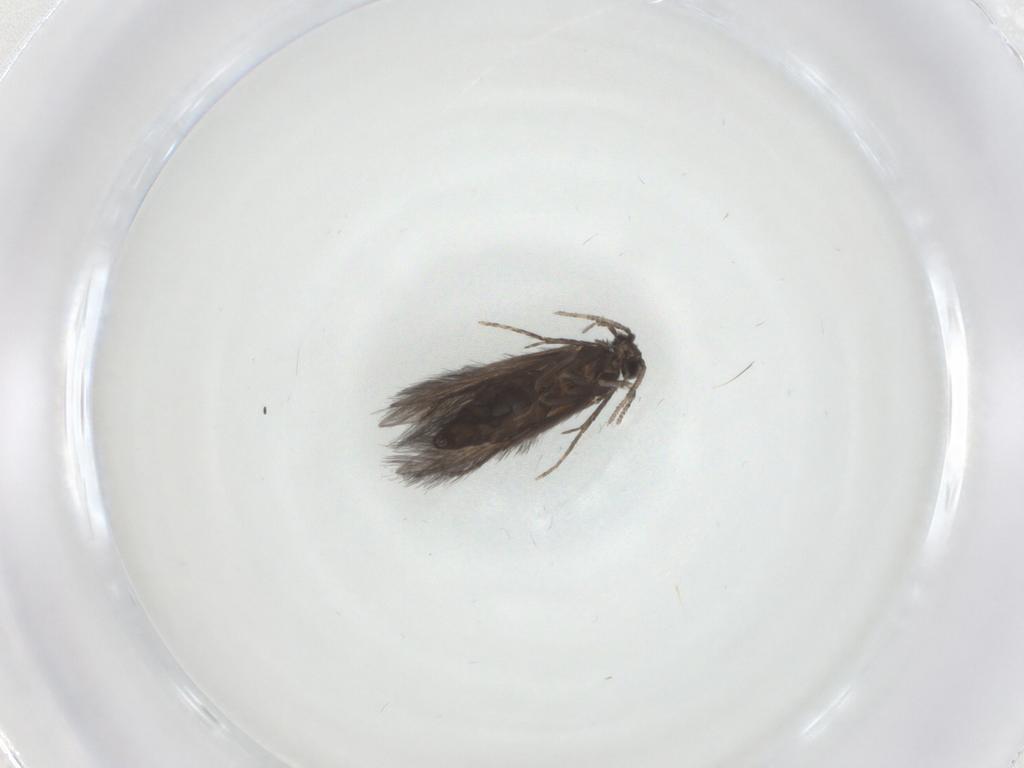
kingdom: Animalia
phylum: Arthropoda
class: Insecta
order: Trichoptera
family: Hydroptilidae
